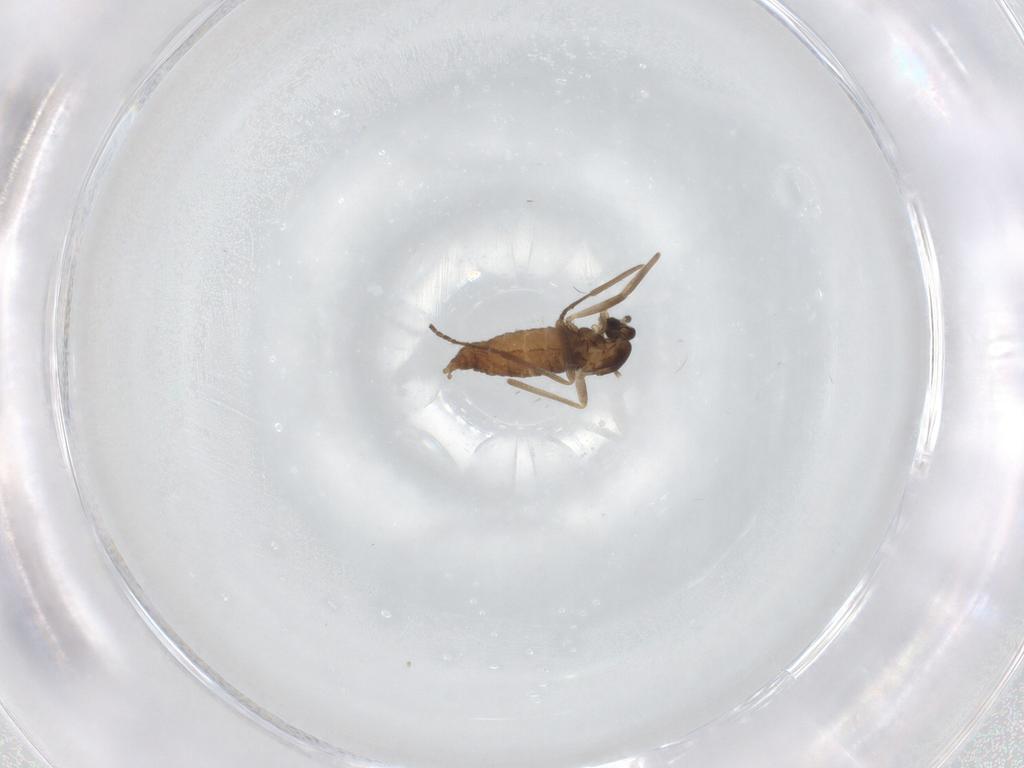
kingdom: Animalia
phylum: Arthropoda
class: Insecta
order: Diptera
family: Cecidomyiidae
